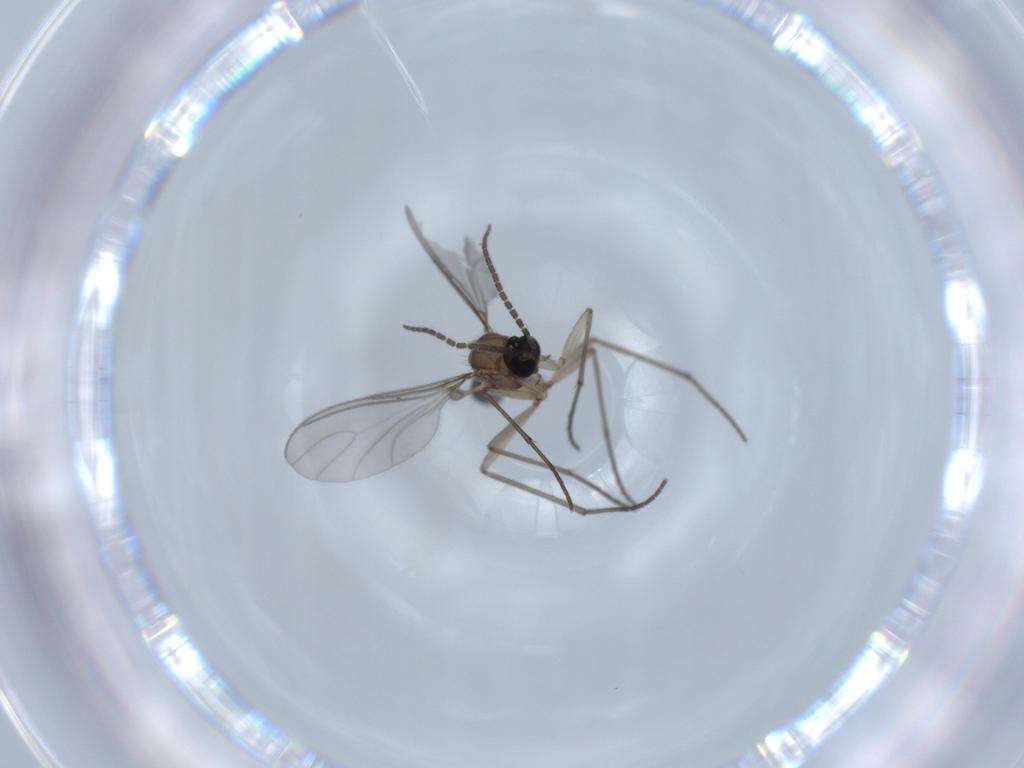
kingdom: Animalia
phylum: Arthropoda
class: Insecta
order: Diptera
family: Sciaridae
